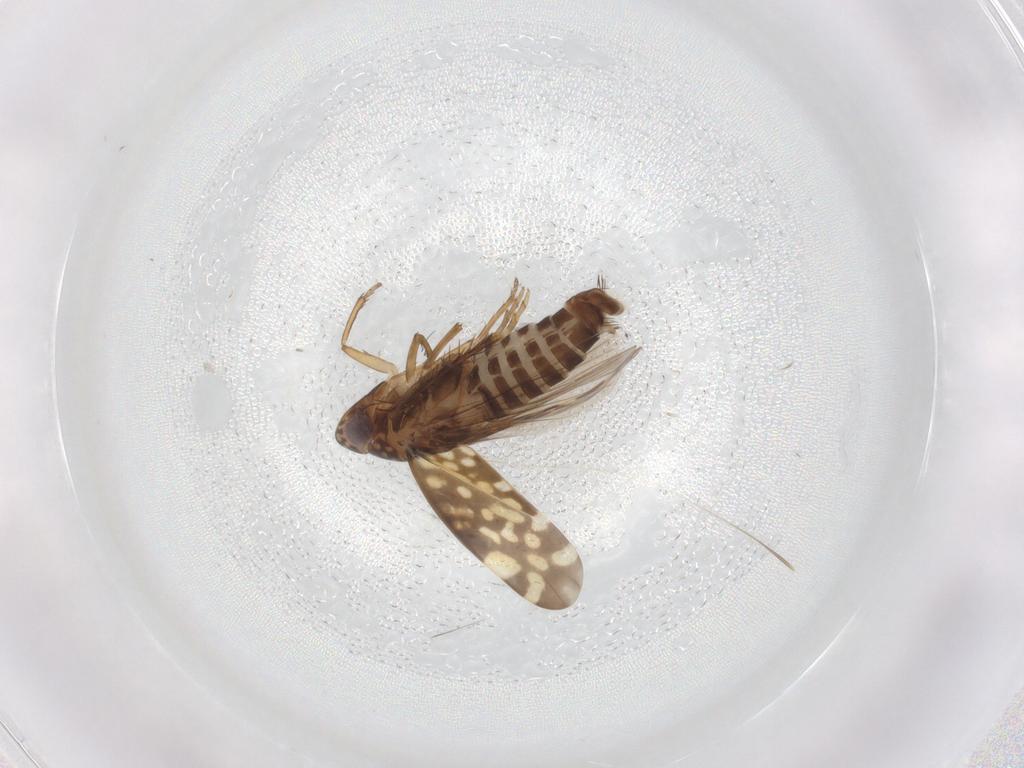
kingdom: Animalia
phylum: Arthropoda
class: Insecta
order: Hemiptera
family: Cicadellidae
